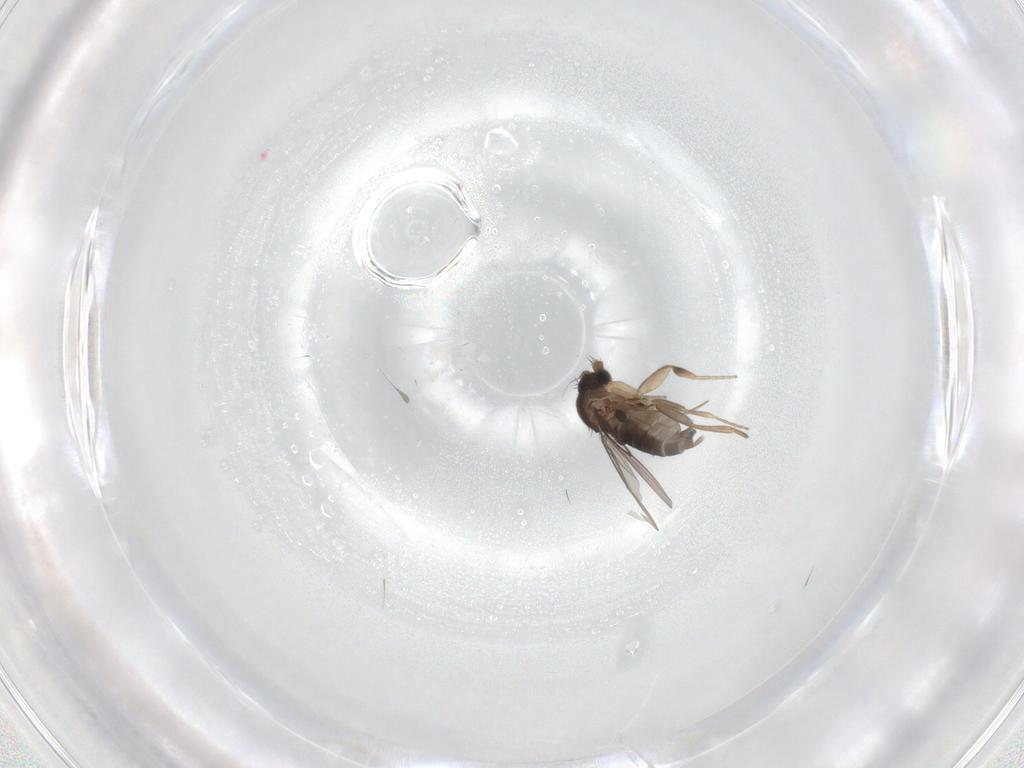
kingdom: Animalia
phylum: Arthropoda
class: Insecta
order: Diptera
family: Phoridae
